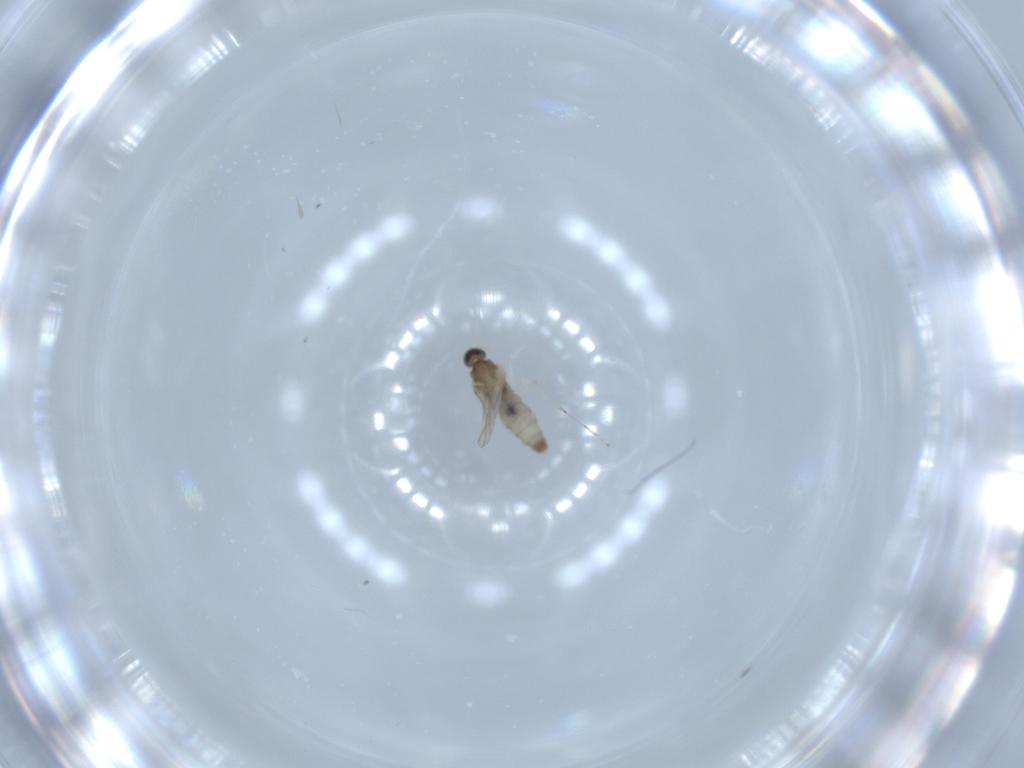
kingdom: Animalia
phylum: Arthropoda
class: Insecta
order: Diptera
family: Cecidomyiidae
